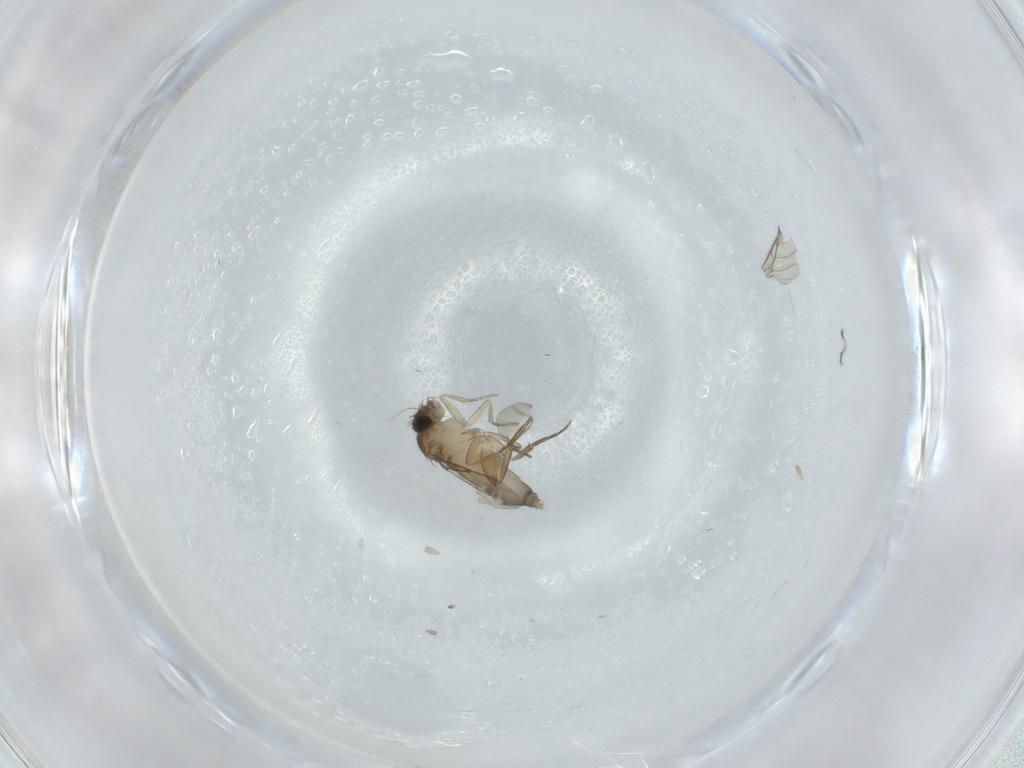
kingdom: Animalia
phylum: Arthropoda
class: Insecta
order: Diptera
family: Phoridae
